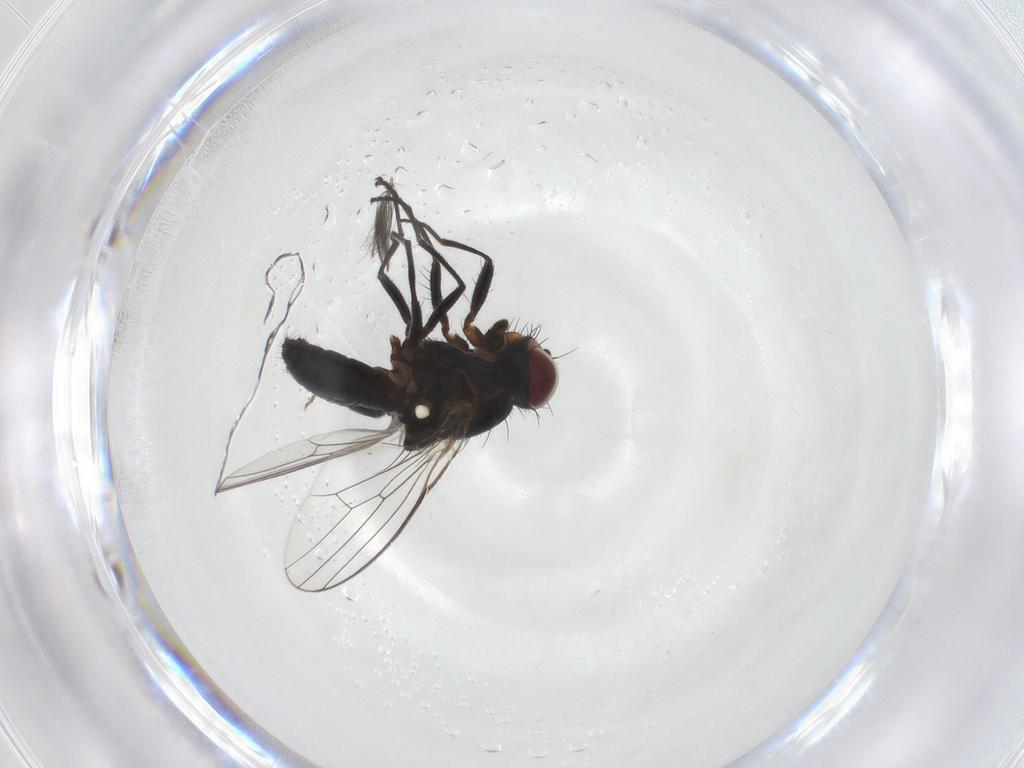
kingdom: Animalia
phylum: Arthropoda
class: Insecta
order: Diptera
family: Carnidae
